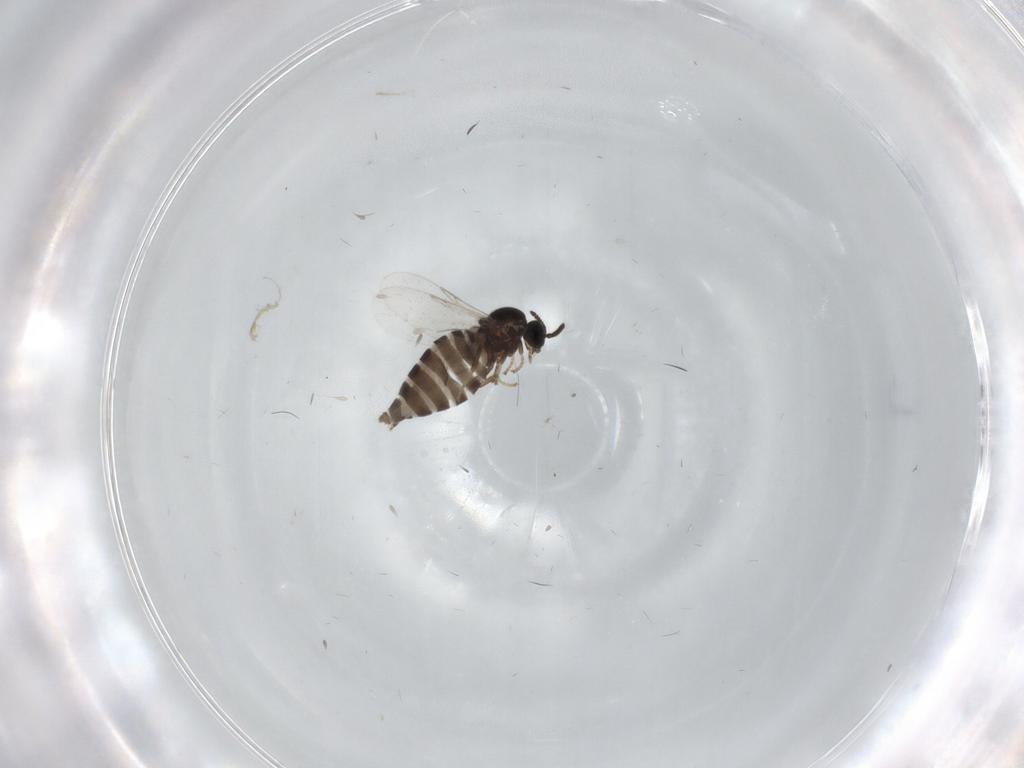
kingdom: Animalia
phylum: Arthropoda
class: Insecta
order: Diptera
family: Scatopsidae
